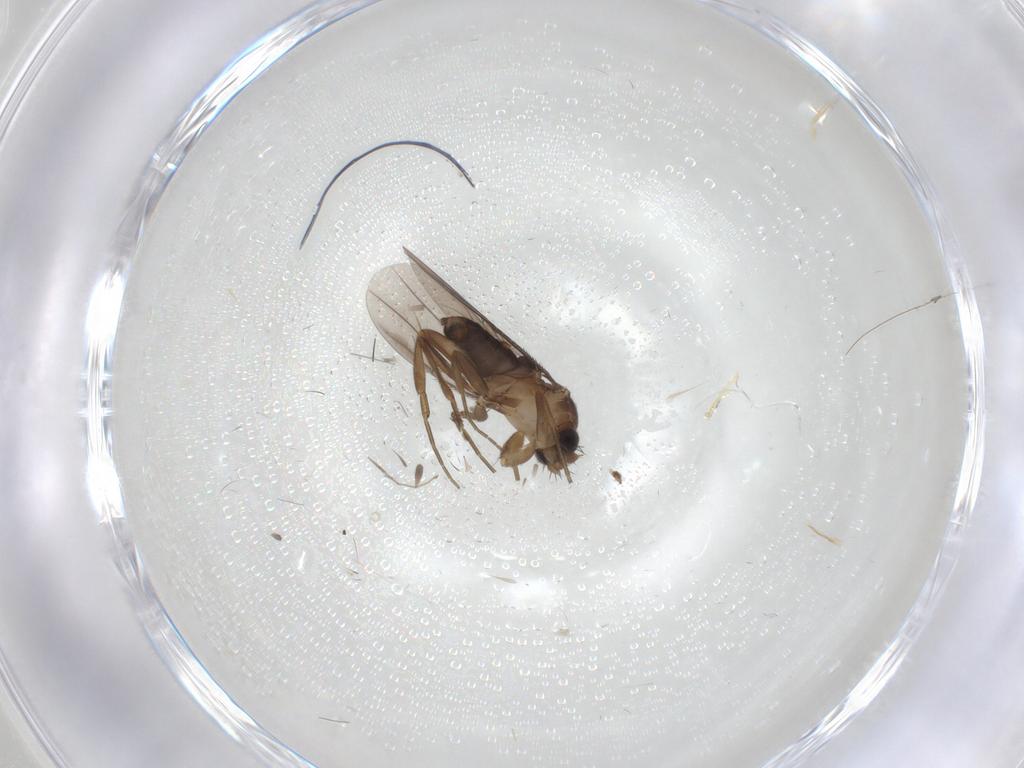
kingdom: Animalia
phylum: Arthropoda
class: Insecta
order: Diptera
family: Phoridae
